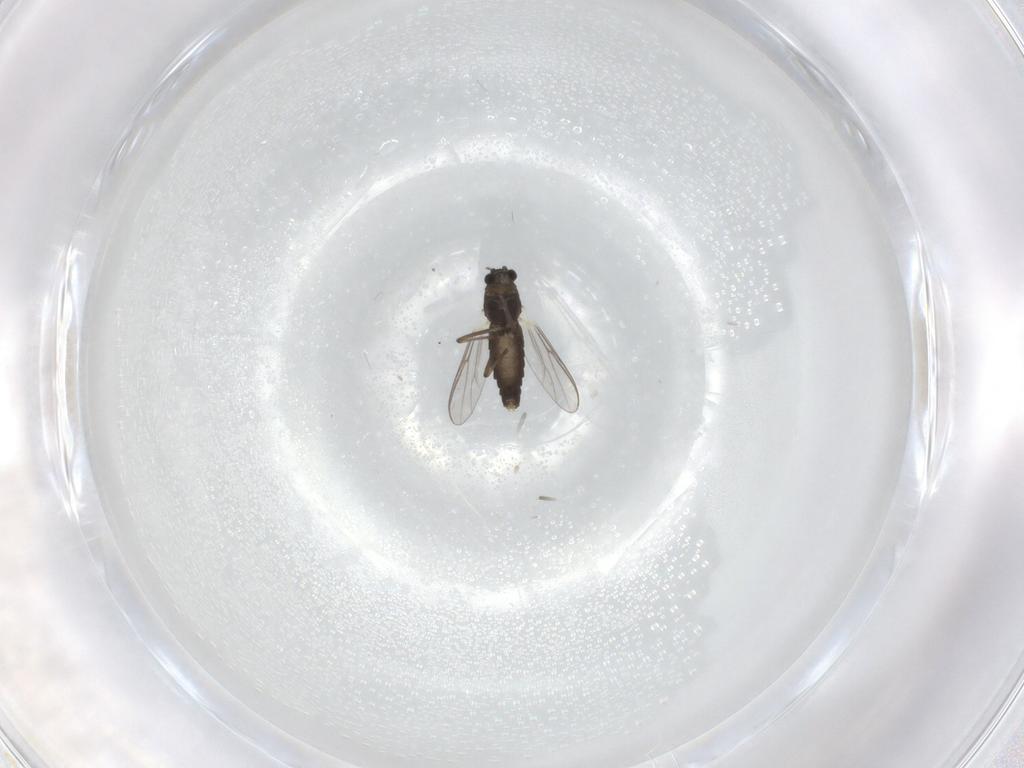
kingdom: Animalia
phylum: Arthropoda
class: Insecta
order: Diptera
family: Chironomidae
